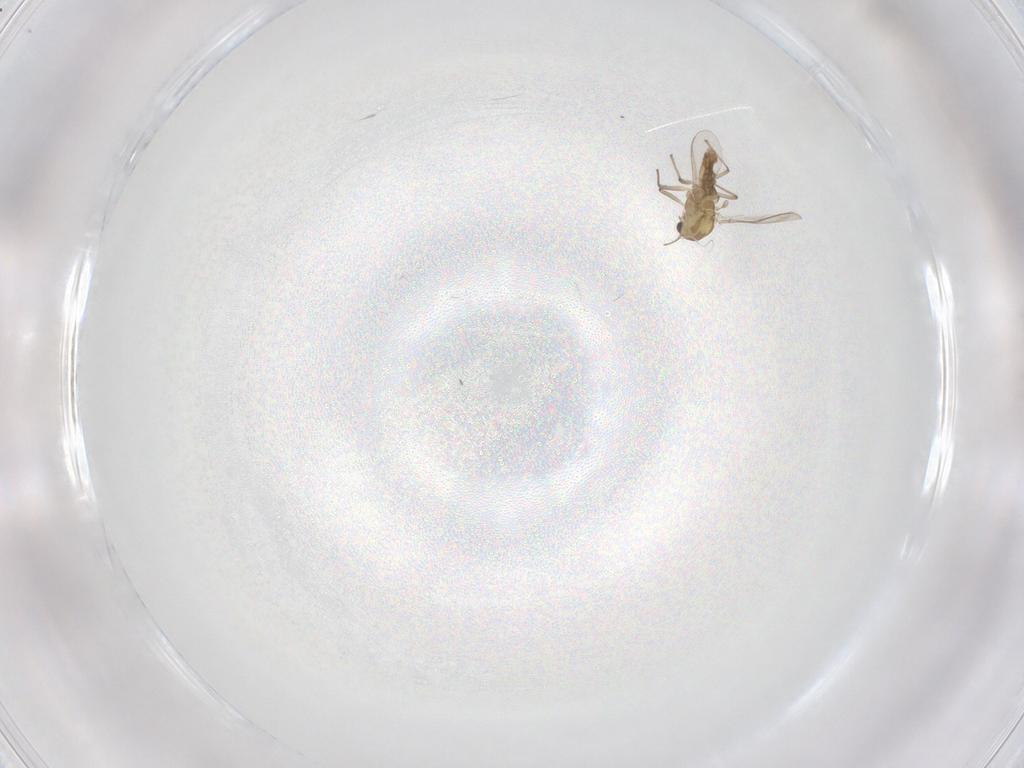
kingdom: Animalia
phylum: Arthropoda
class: Insecta
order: Diptera
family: Chironomidae
